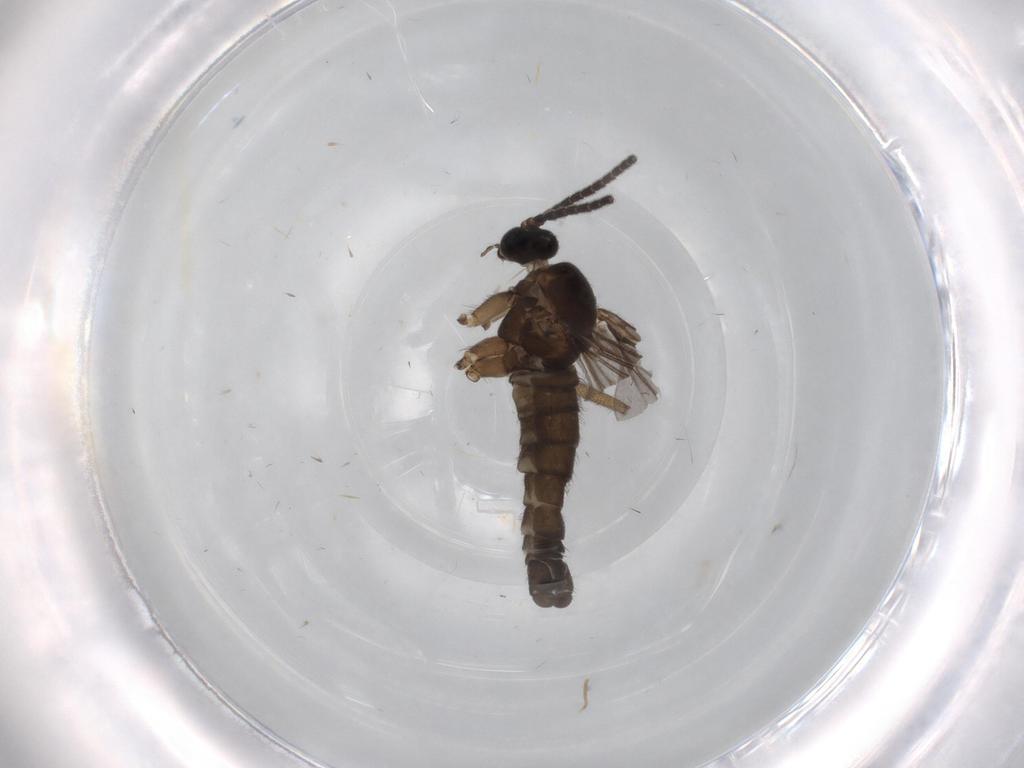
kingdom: Animalia
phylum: Arthropoda
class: Insecta
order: Diptera
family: Sciaridae
